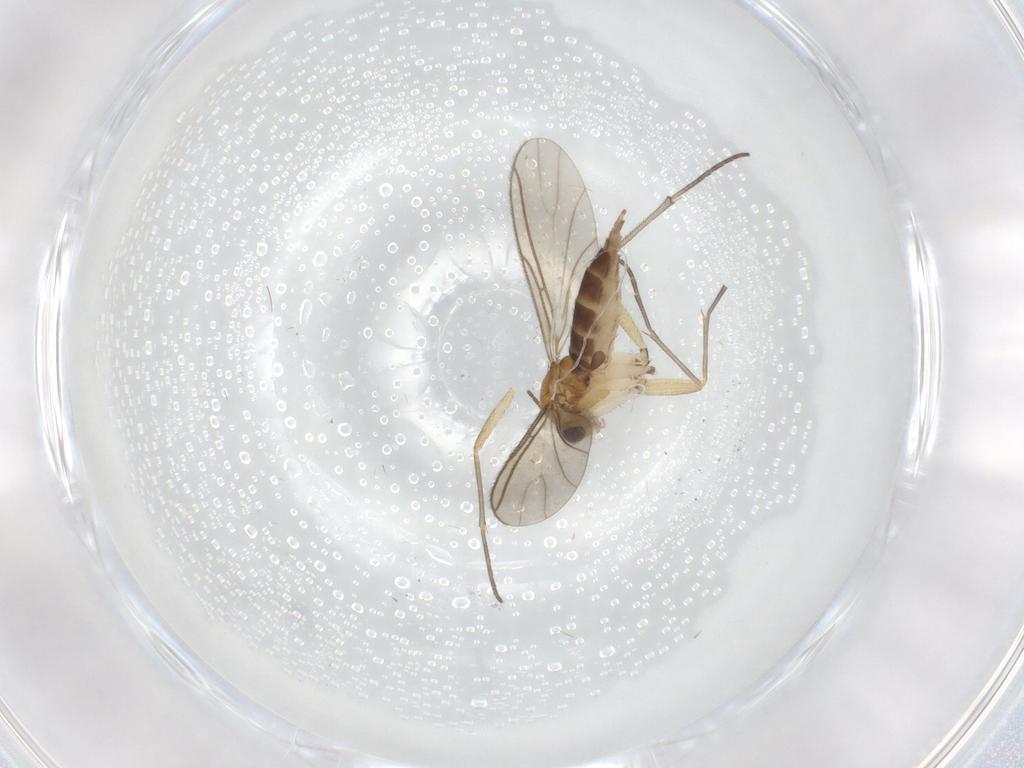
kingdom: Animalia
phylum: Arthropoda
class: Insecta
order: Diptera
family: Sciaridae
